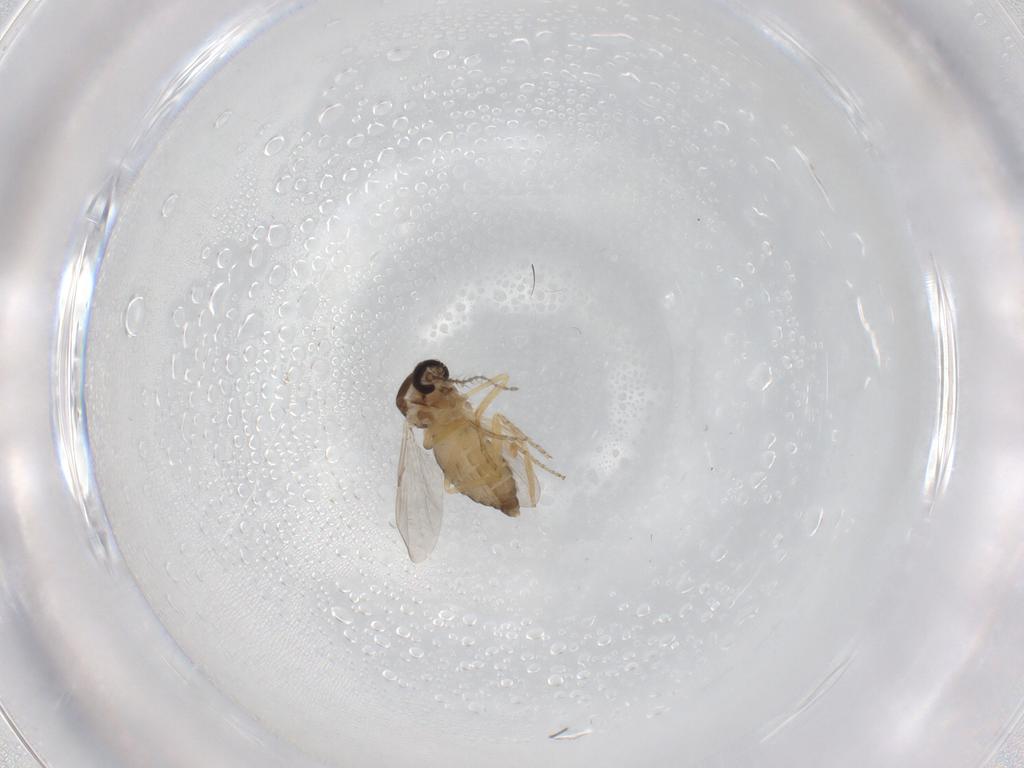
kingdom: Animalia
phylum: Arthropoda
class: Insecta
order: Diptera
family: Ceratopogonidae
